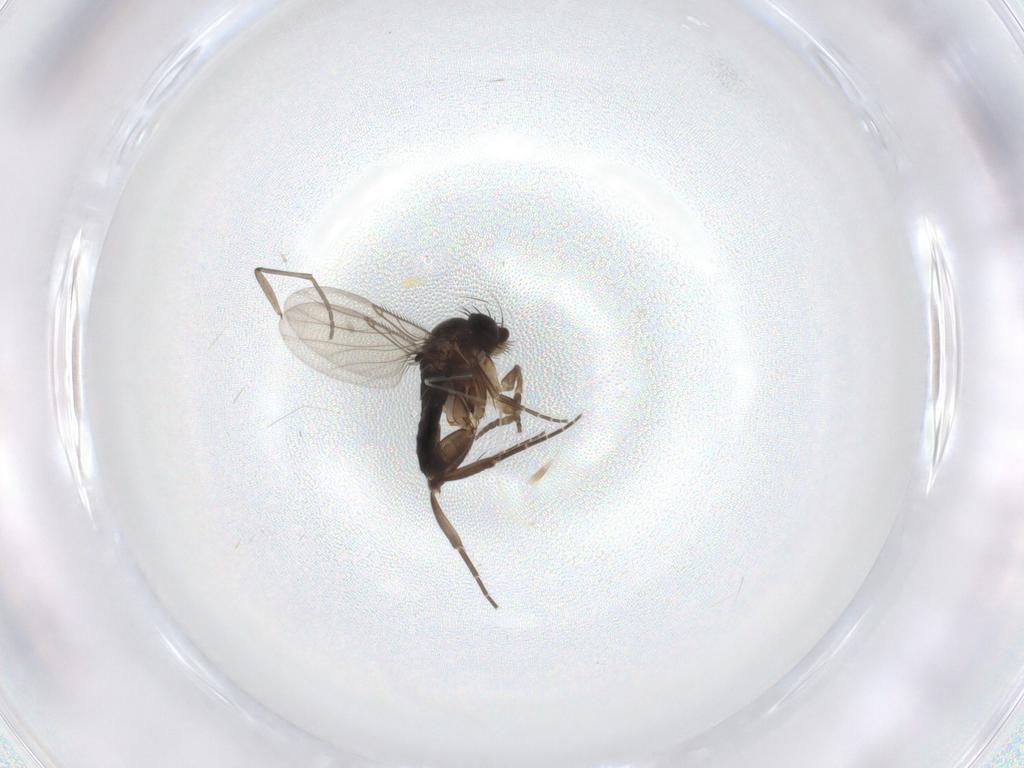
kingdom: Animalia
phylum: Arthropoda
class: Insecta
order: Diptera
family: Phoridae
